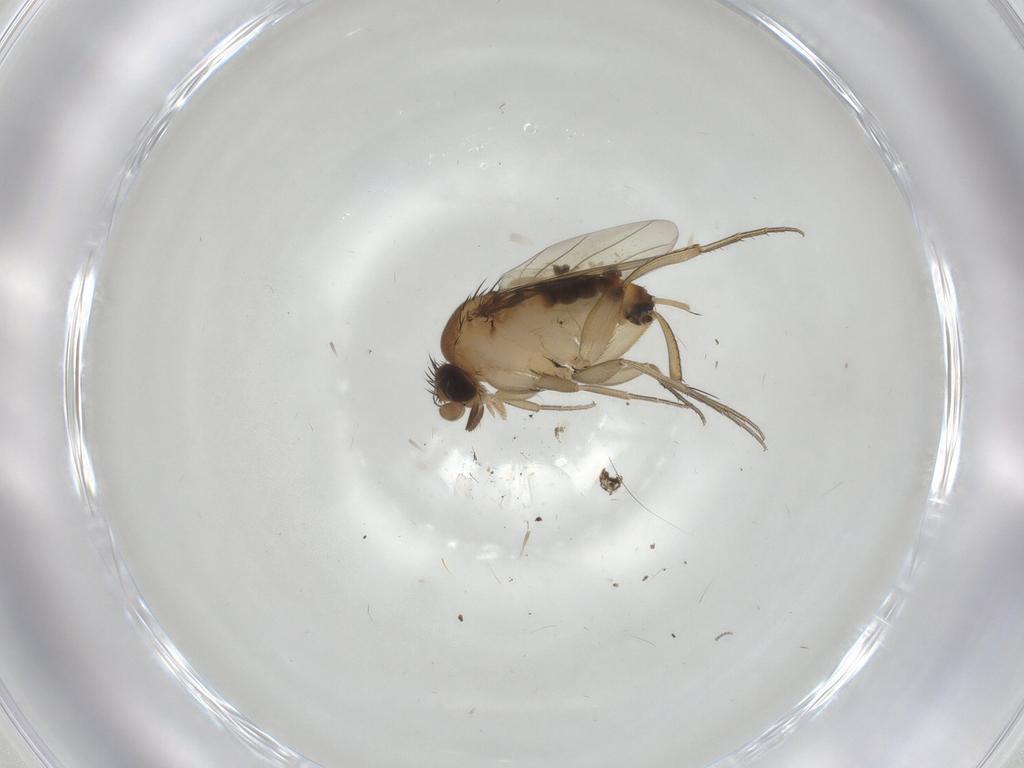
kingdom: Animalia
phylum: Arthropoda
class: Insecta
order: Diptera
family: Phoridae
